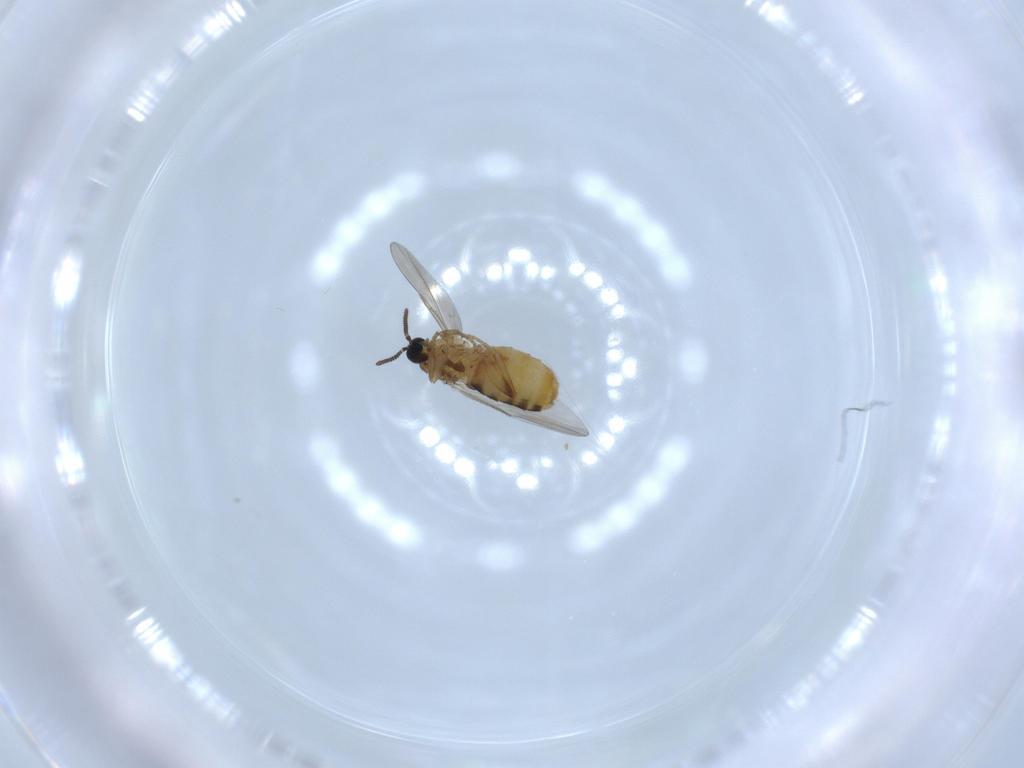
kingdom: Animalia
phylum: Arthropoda
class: Insecta
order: Diptera
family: Scatopsidae
